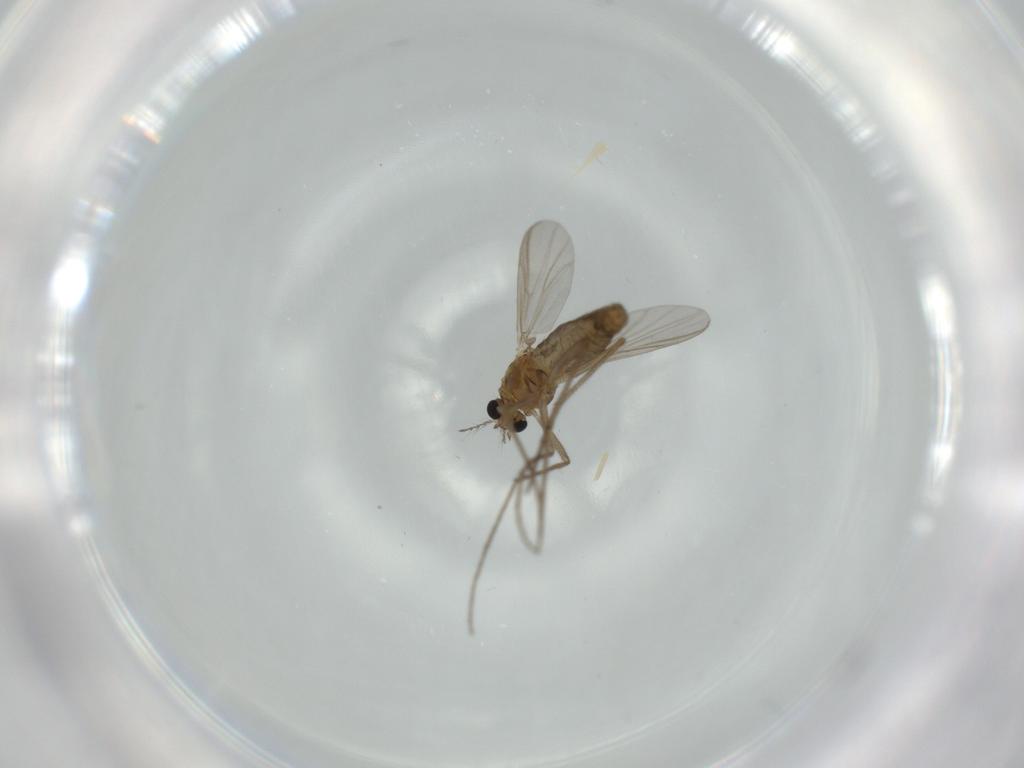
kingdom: Animalia
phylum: Arthropoda
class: Insecta
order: Diptera
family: Chironomidae
